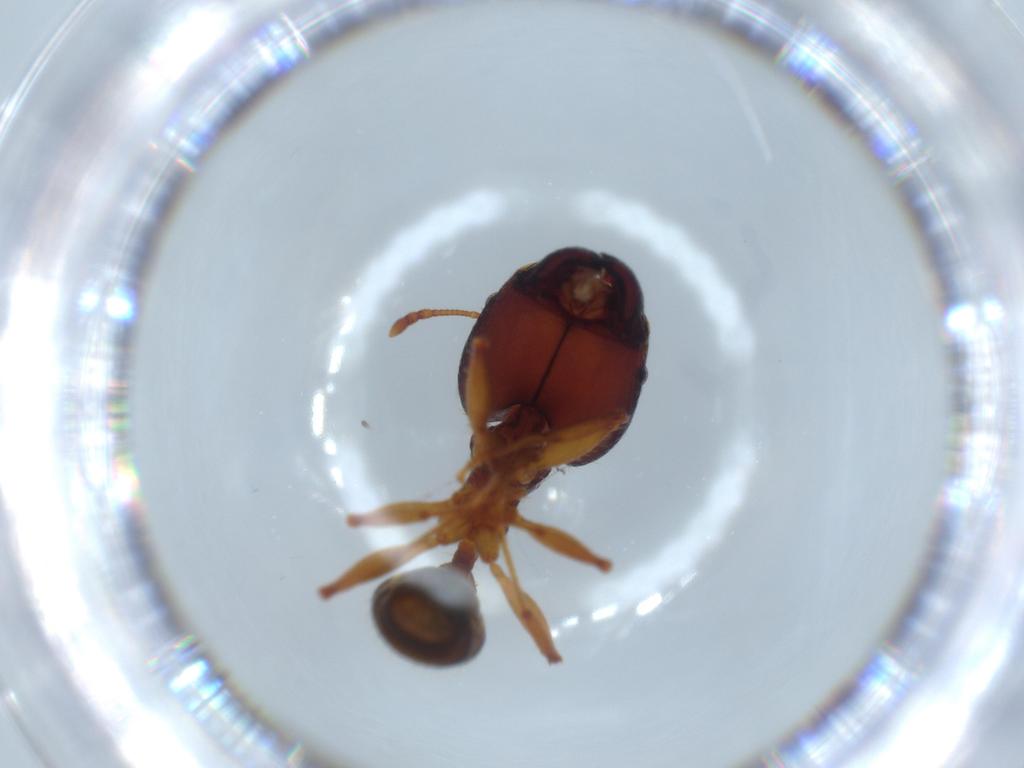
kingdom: Animalia
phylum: Arthropoda
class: Insecta
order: Hymenoptera
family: Formicidae
